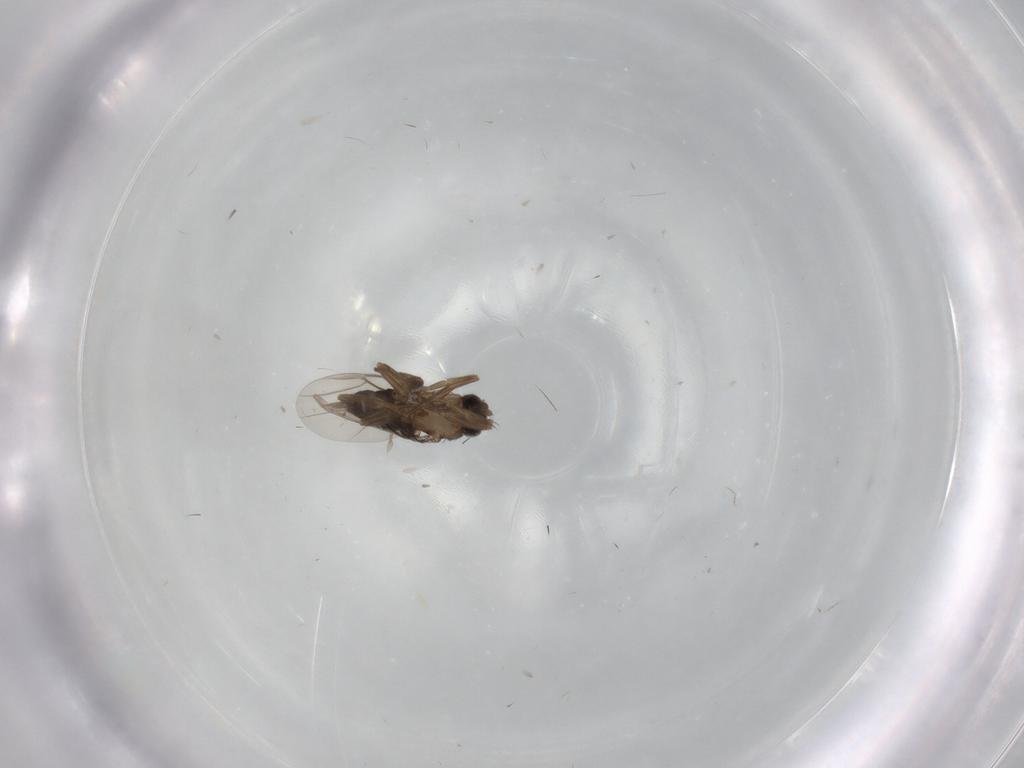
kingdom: Animalia
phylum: Arthropoda
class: Insecta
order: Diptera
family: Phoridae
